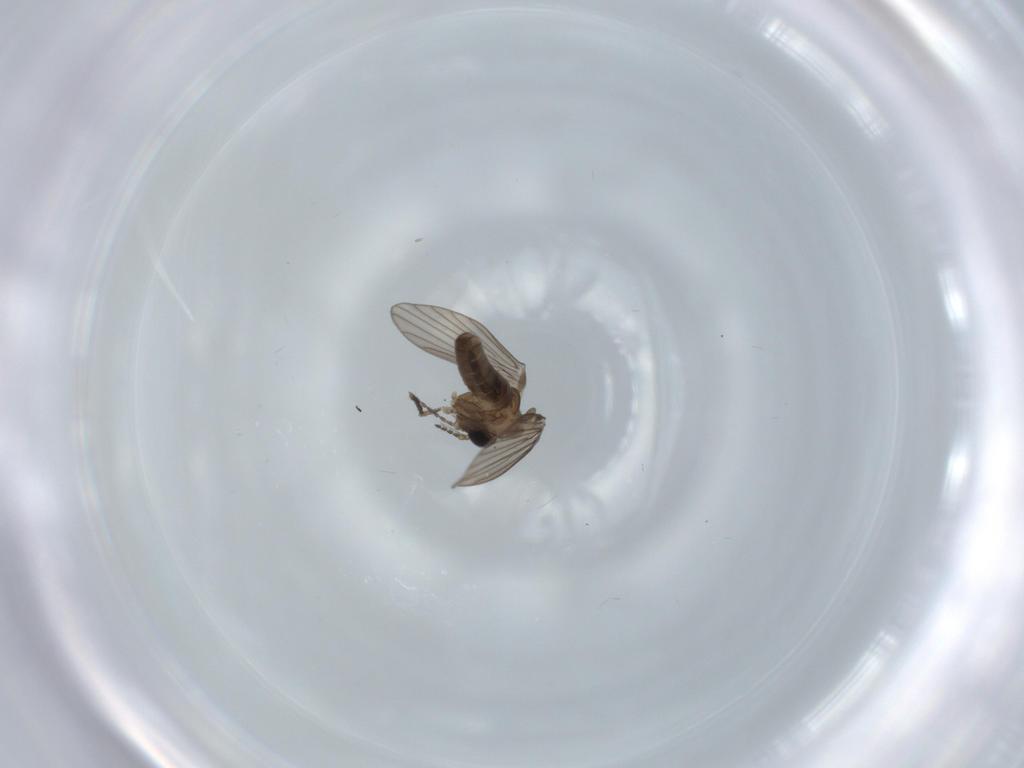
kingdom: Animalia
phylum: Arthropoda
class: Insecta
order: Diptera
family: Psychodidae
